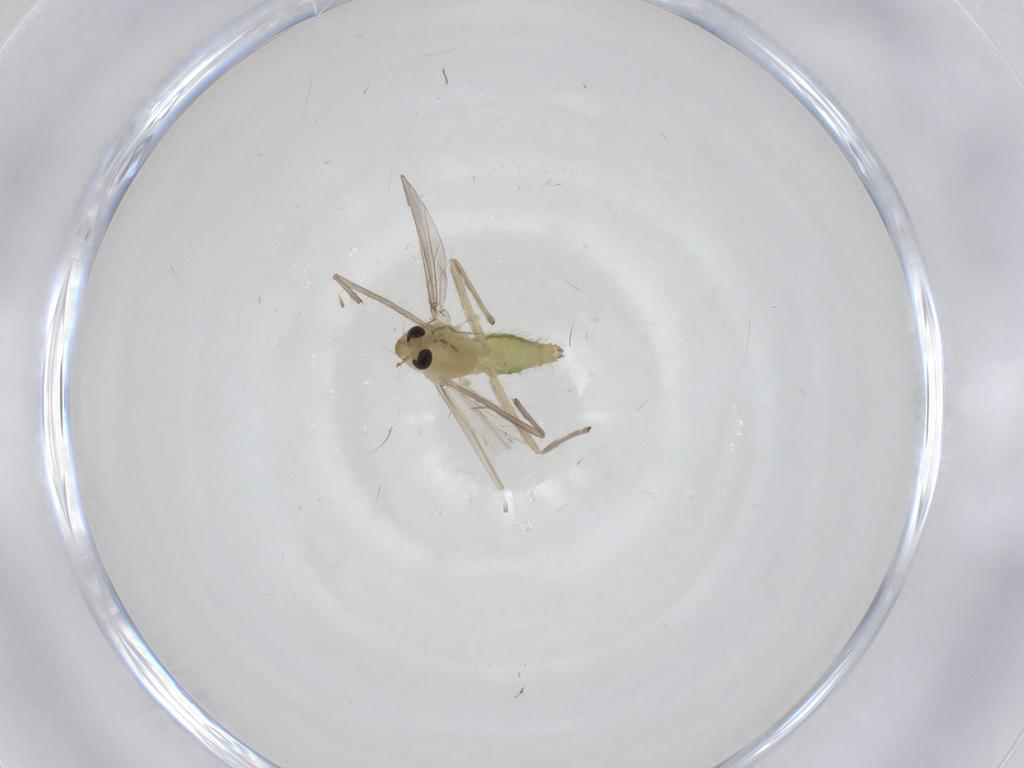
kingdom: Animalia
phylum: Arthropoda
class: Insecta
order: Diptera
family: Chironomidae
